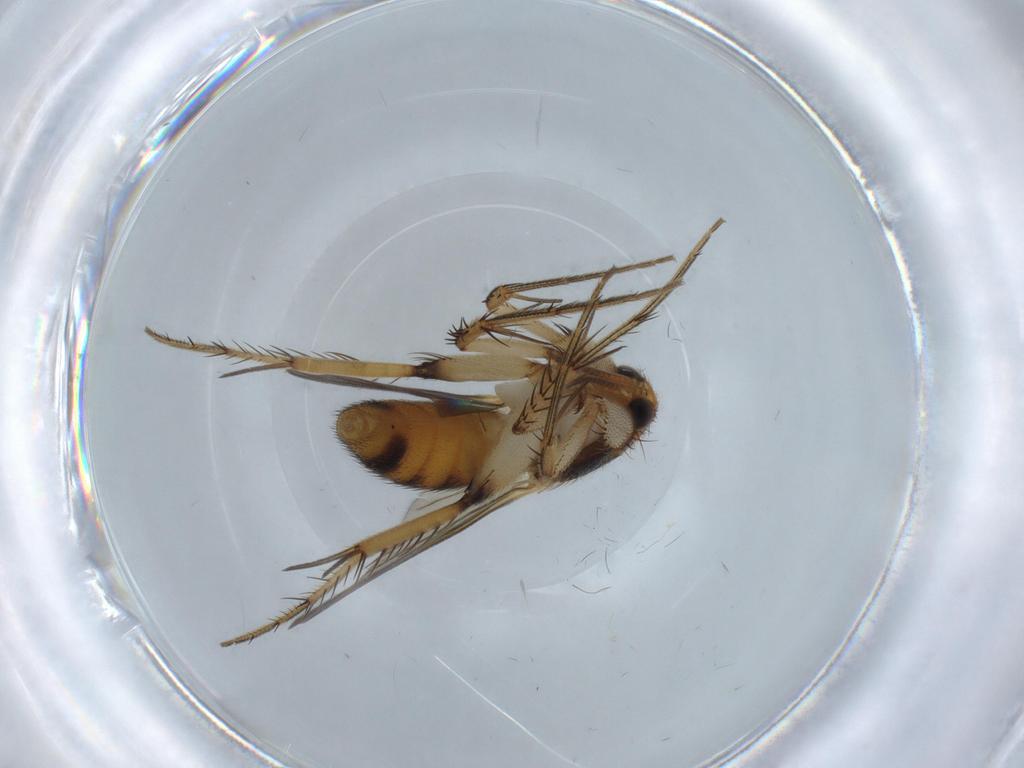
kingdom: Animalia
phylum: Arthropoda
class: Insecta
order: Diptera
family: Mycetophilidae
